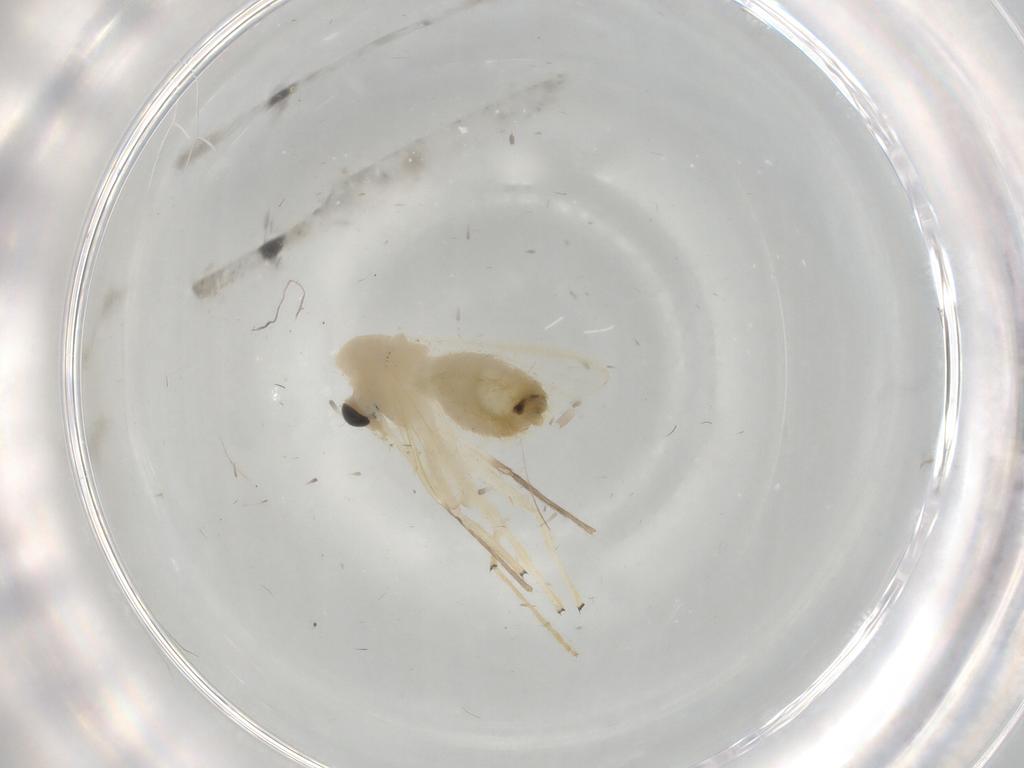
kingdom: Animalia
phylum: Arthropoda
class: Insecta
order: Diptera
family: Chironomidae
